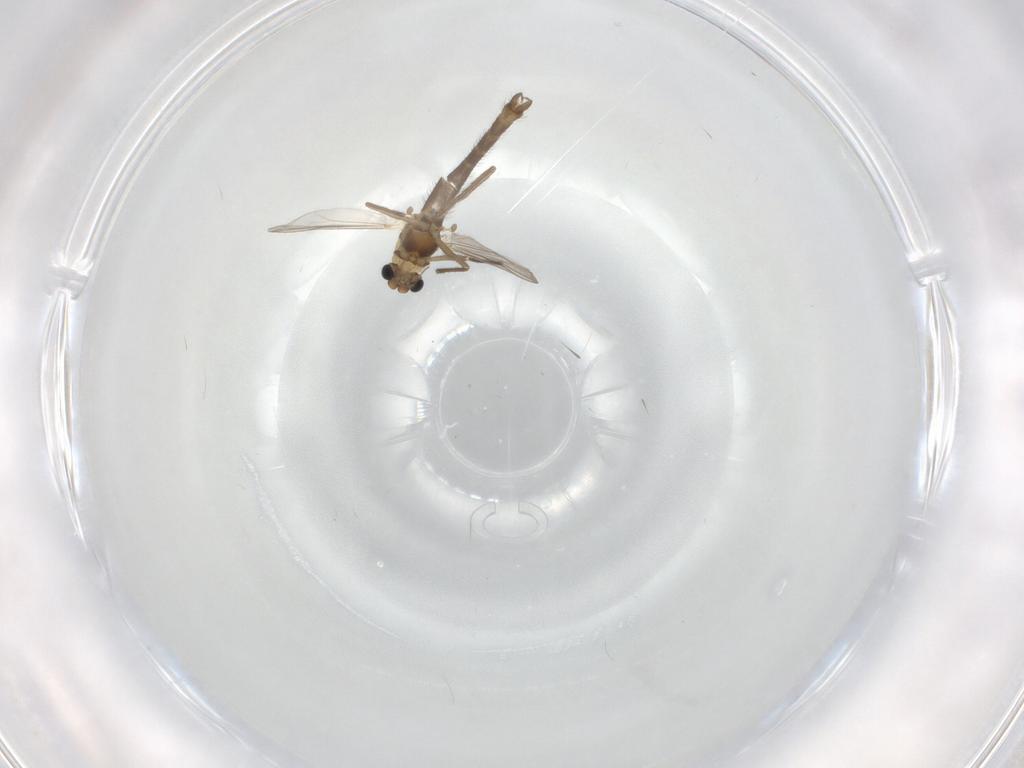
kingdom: Animalia
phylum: Arthropoda
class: Insecta
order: Diptera
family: Chironomidae
